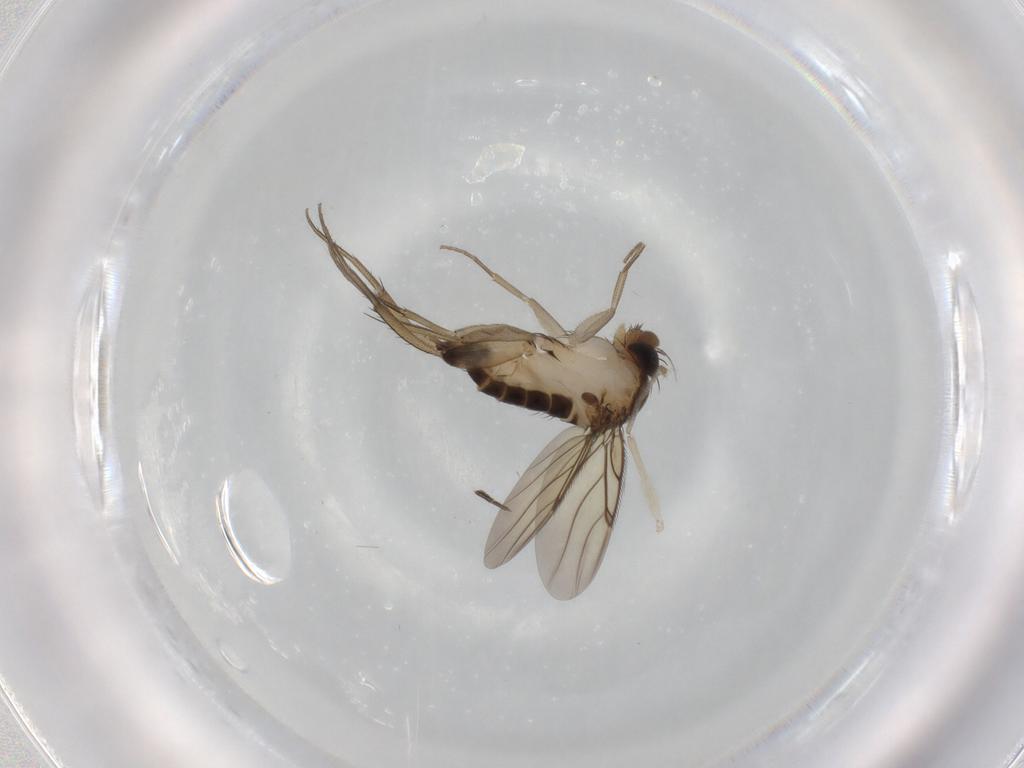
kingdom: Animalia
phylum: Arthropoda
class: Insecta
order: Diptera
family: Phoridae
